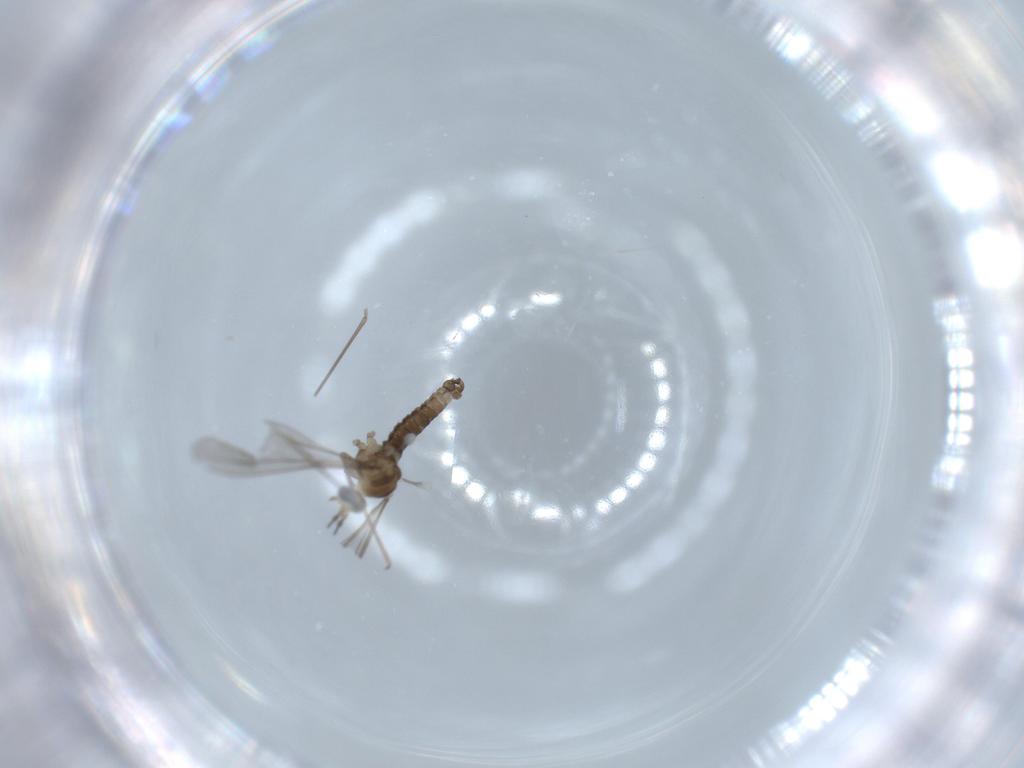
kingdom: Animalia
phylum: Arthropoda
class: Insecta
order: Diptera
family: Cecidomyiidae
